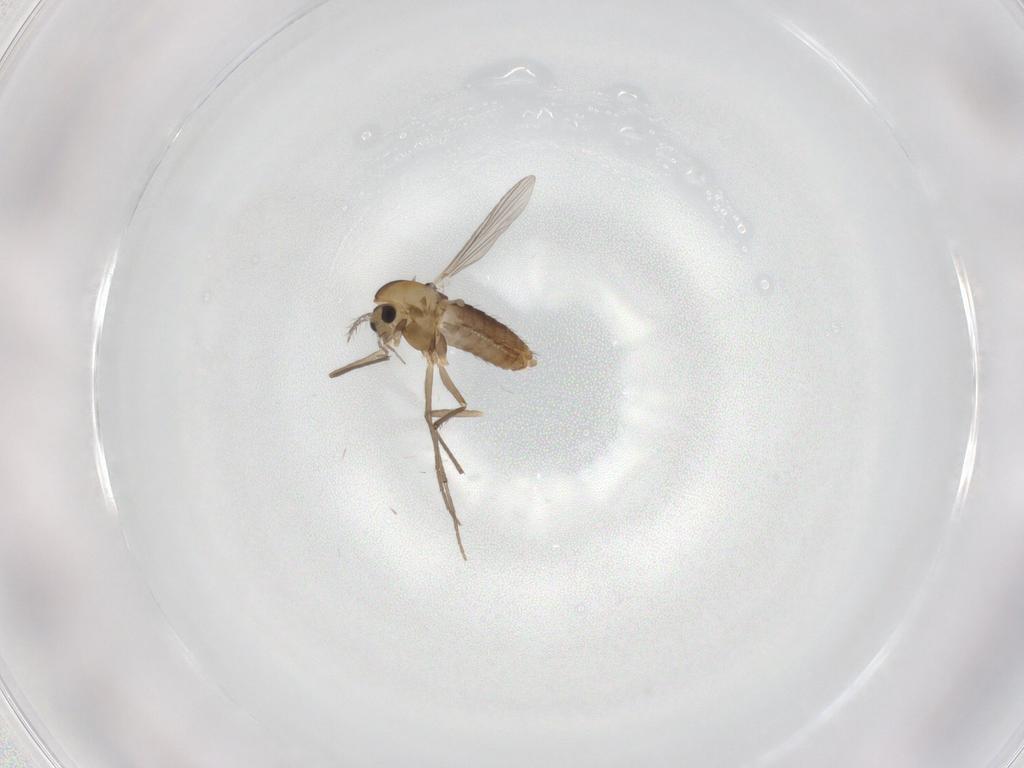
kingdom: Animalia
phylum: Arthropoda
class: Insecta
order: Diptera
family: Chironomidae
